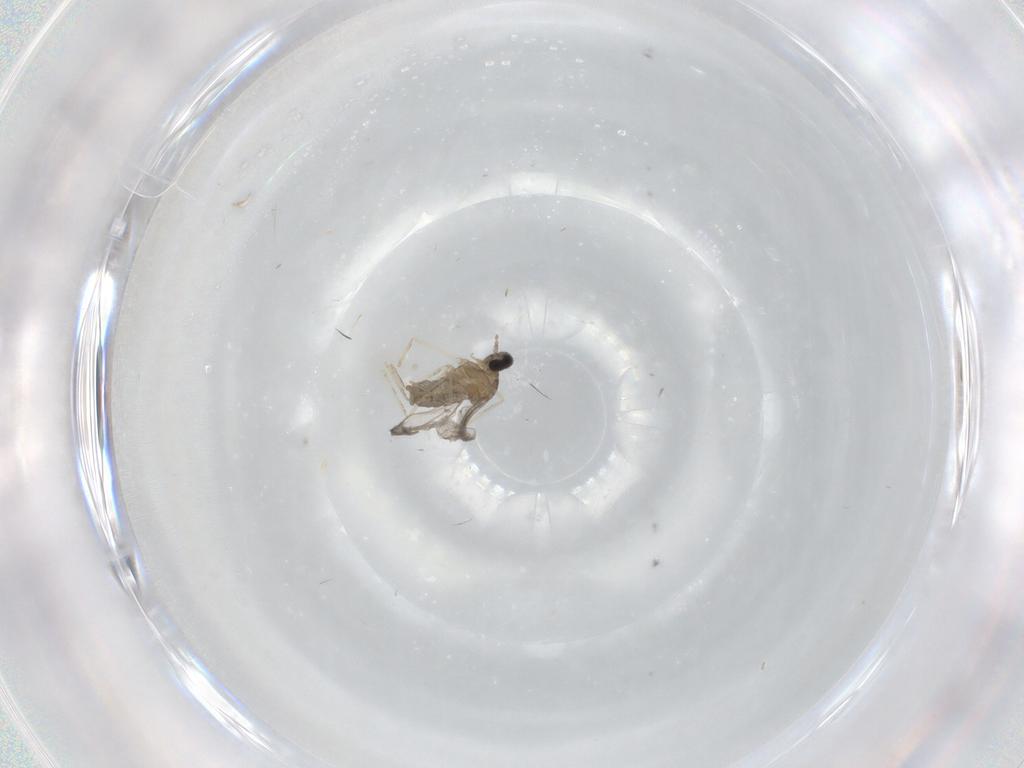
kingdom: Animalia
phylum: Arthropoda
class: Insecta
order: Diptera
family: Cecidomyiidae
